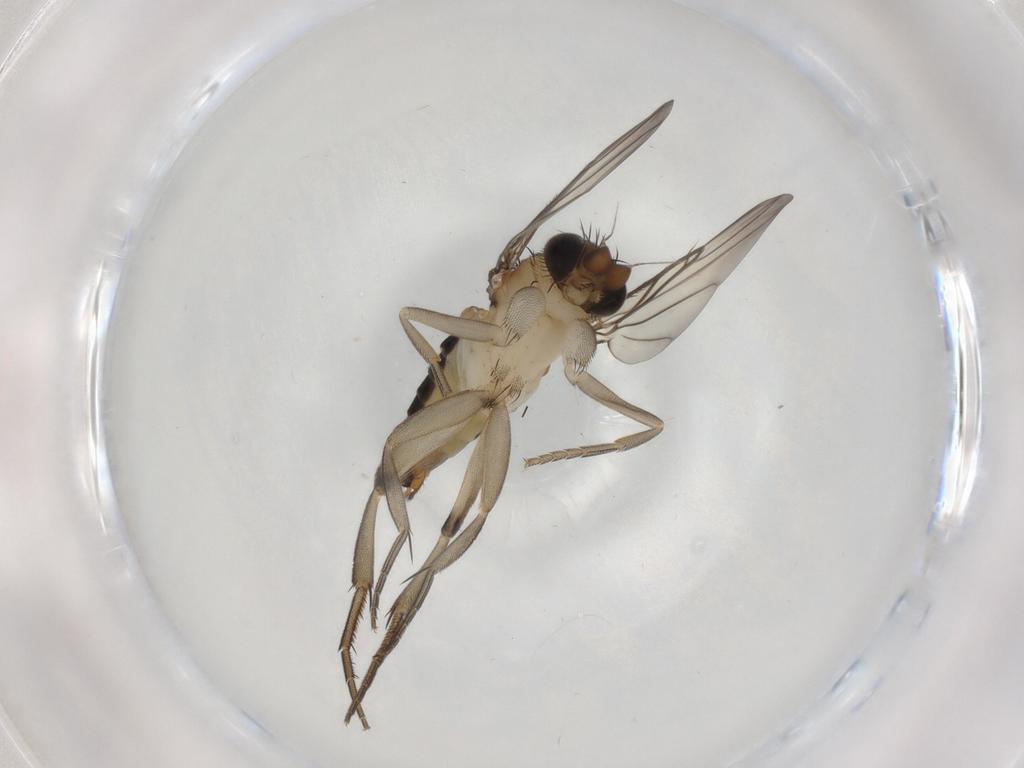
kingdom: Animalia
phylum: Arthropoda
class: Insecta
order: Diptera
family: Phoridae
